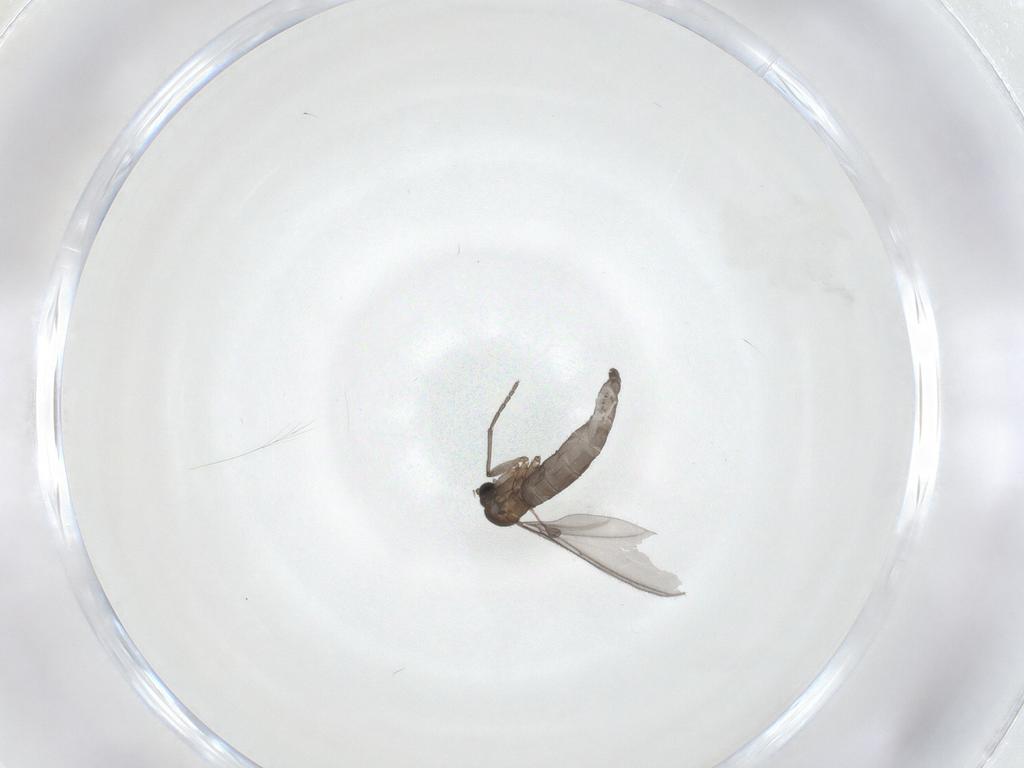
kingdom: Animalia
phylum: Arthropoda
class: Insecta
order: Diptera
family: Sciaridae
